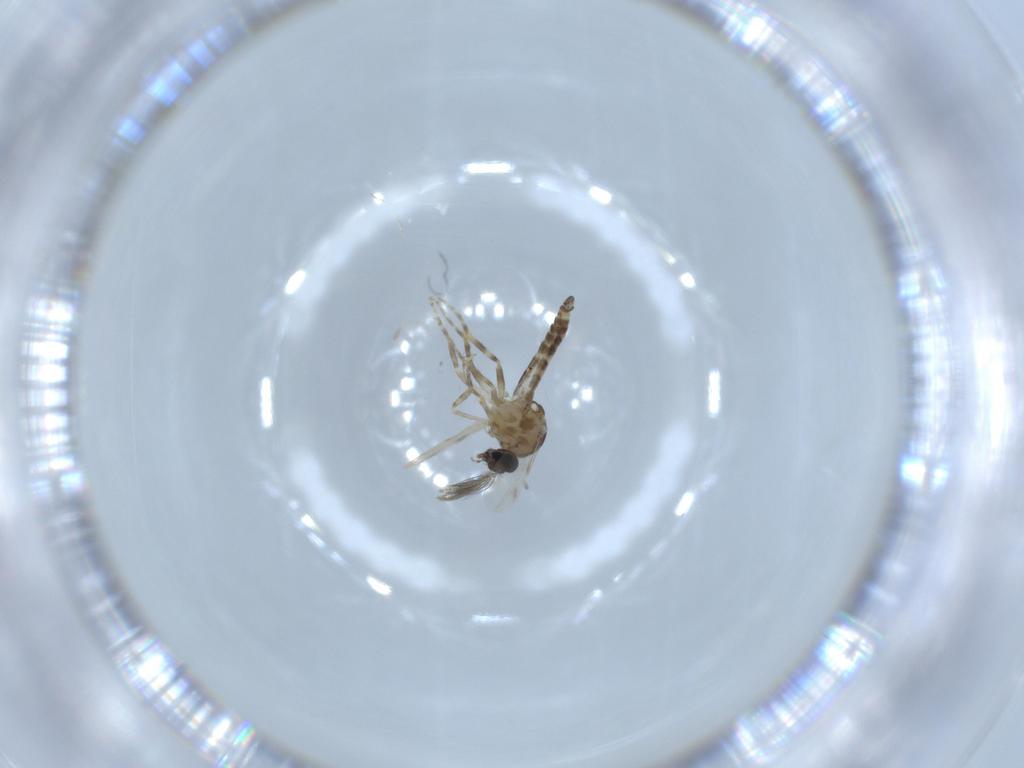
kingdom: Animalia
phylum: Arthropoda
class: Insecta
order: Diptera
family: Ceratopogonidae
